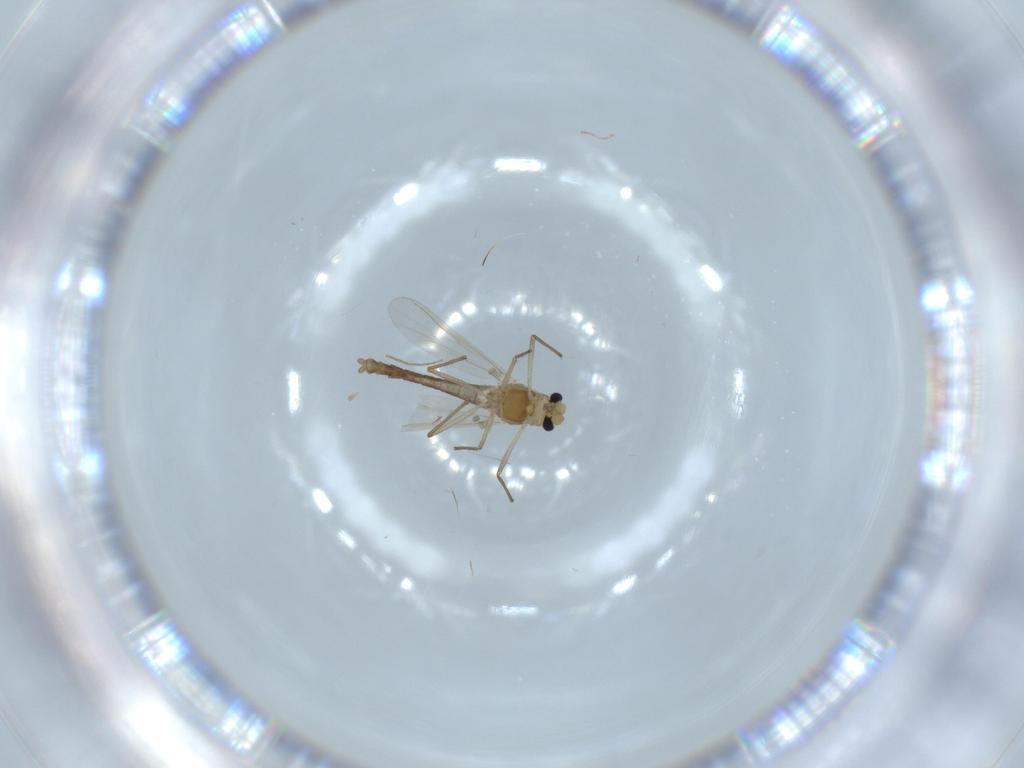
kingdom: Animalia
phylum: Arthropoda
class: Insecta
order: Diptera
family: Chironomidae
